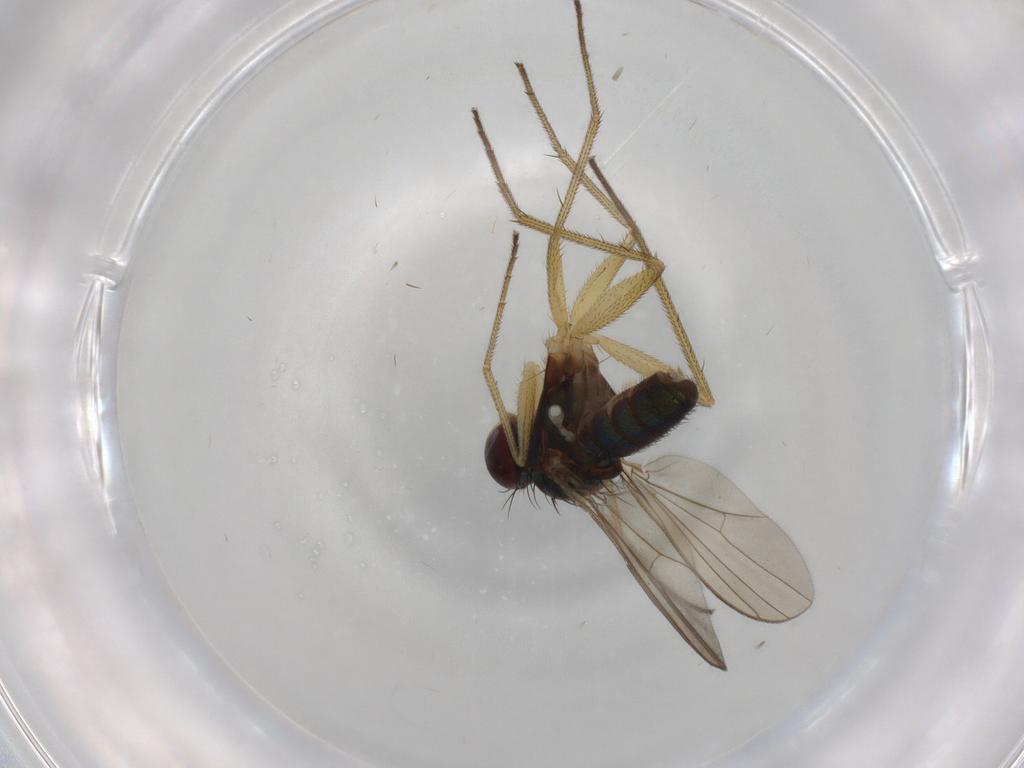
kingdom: Animalia
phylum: Arthropoda
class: Insecta
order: Diptera
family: Dolichopodidae
